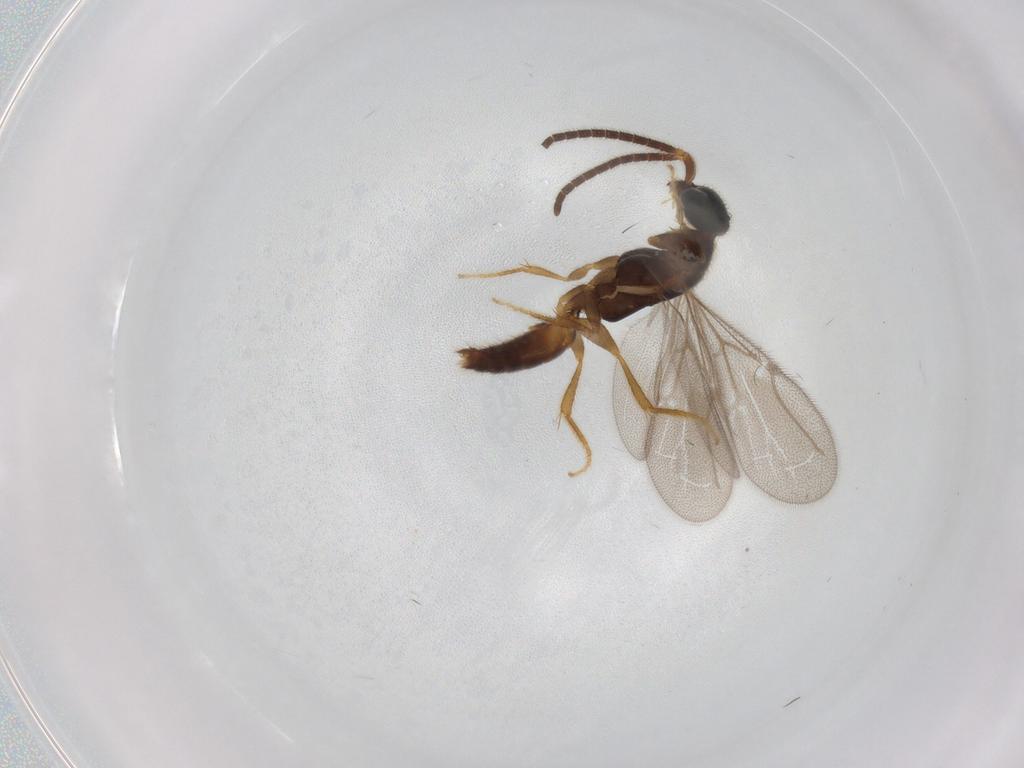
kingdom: Animalia
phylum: Arthropoda
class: Insecta
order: Hymenoptera
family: Bethylidae
